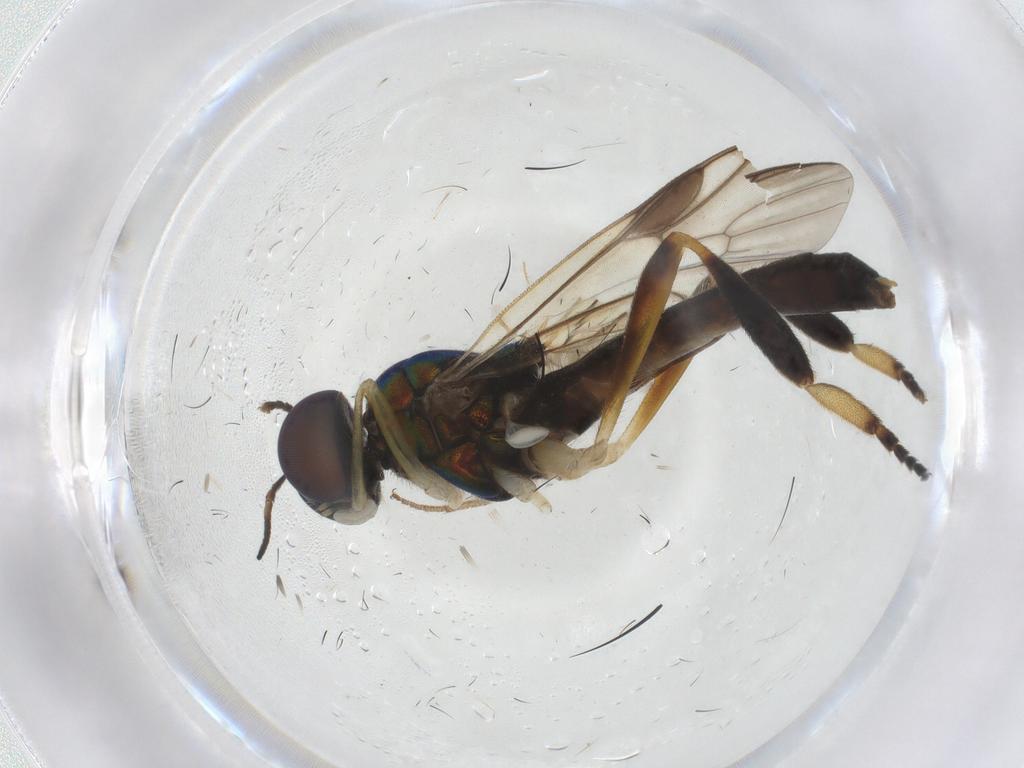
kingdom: Animalia
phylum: Arthropoda
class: Insecta
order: Diptera
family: Stratiomyidae
